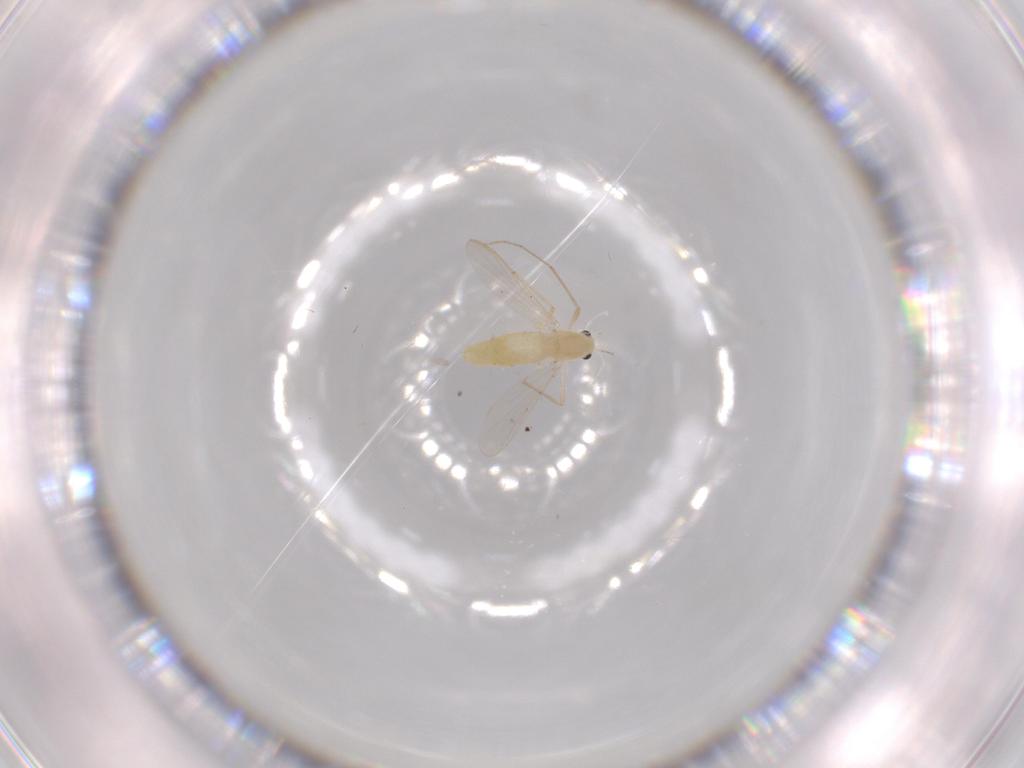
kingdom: Animalia
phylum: Arthropoda
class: Insecta
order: Diptera
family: Chironomidae
